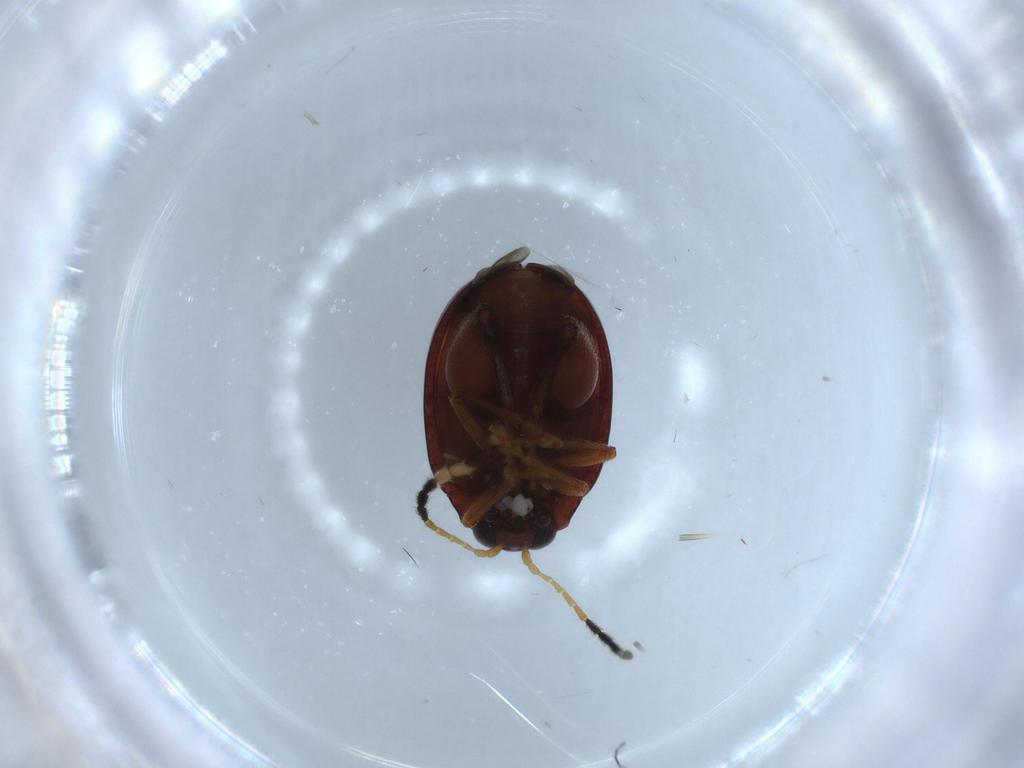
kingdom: Animalia
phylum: Arthropoda
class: Insecta
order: Coleoptera
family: Chrysomelidae
